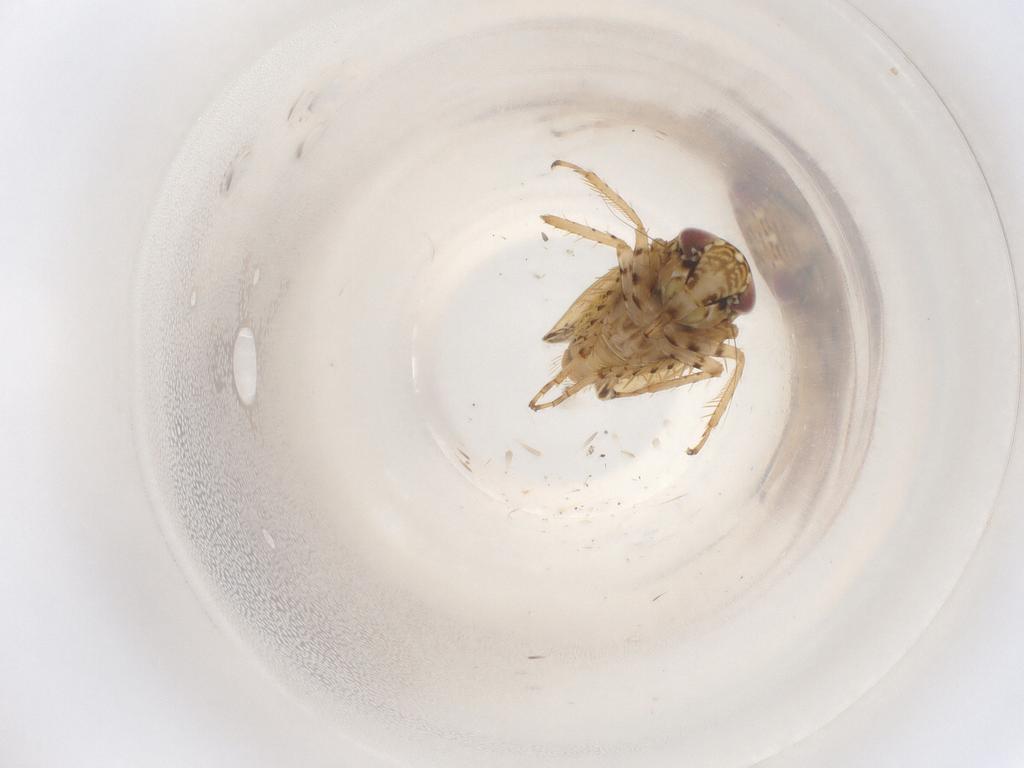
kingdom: Animalia
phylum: Arthropoda
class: Insecta
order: Hemiptera
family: Cicadellidae
